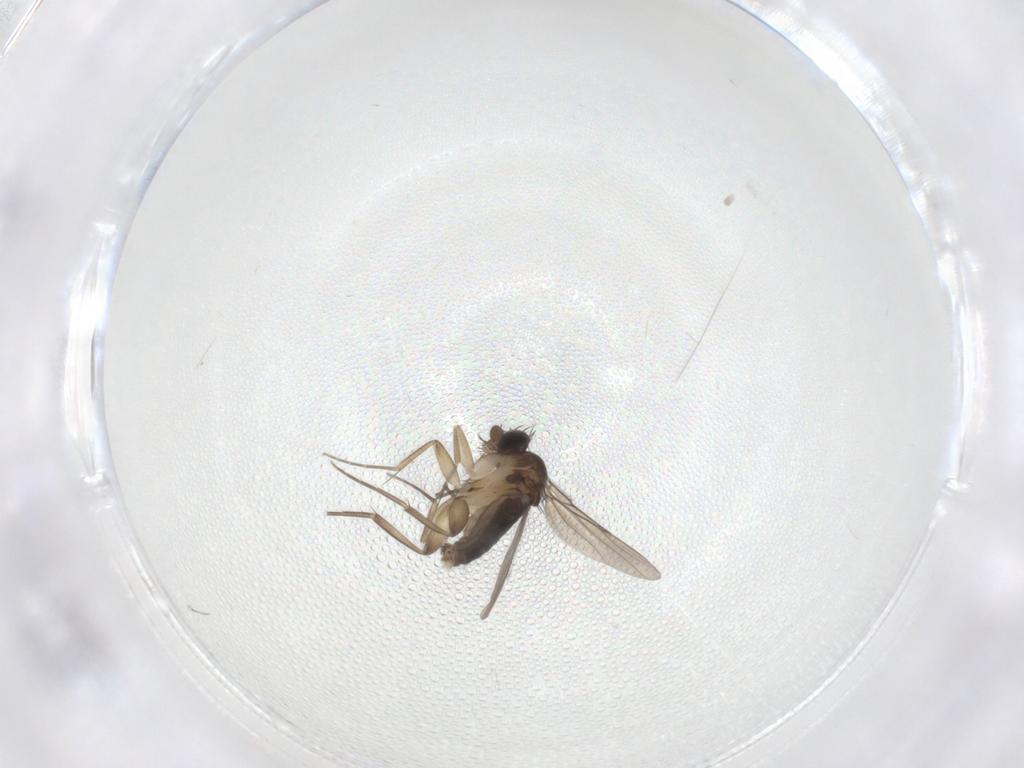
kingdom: Animalia
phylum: Arthropoda
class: Insecta
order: Diptera
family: Phoridae
